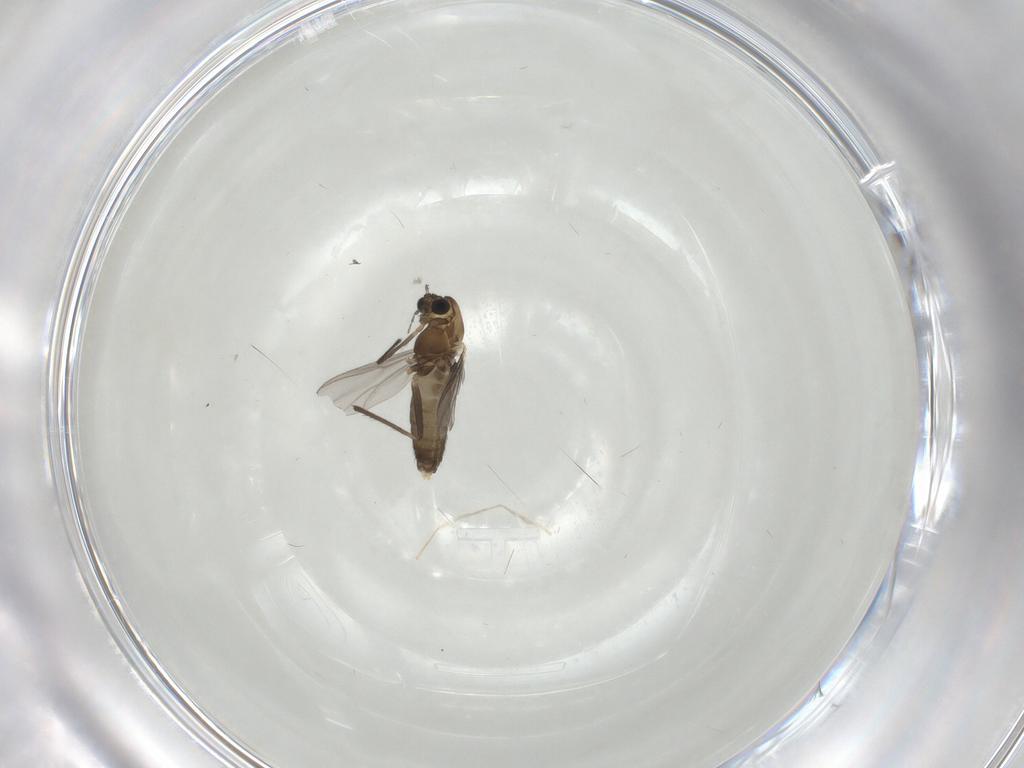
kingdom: Animalia
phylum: Arthropoda
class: Insecta
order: Diptera
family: Chironomidae
